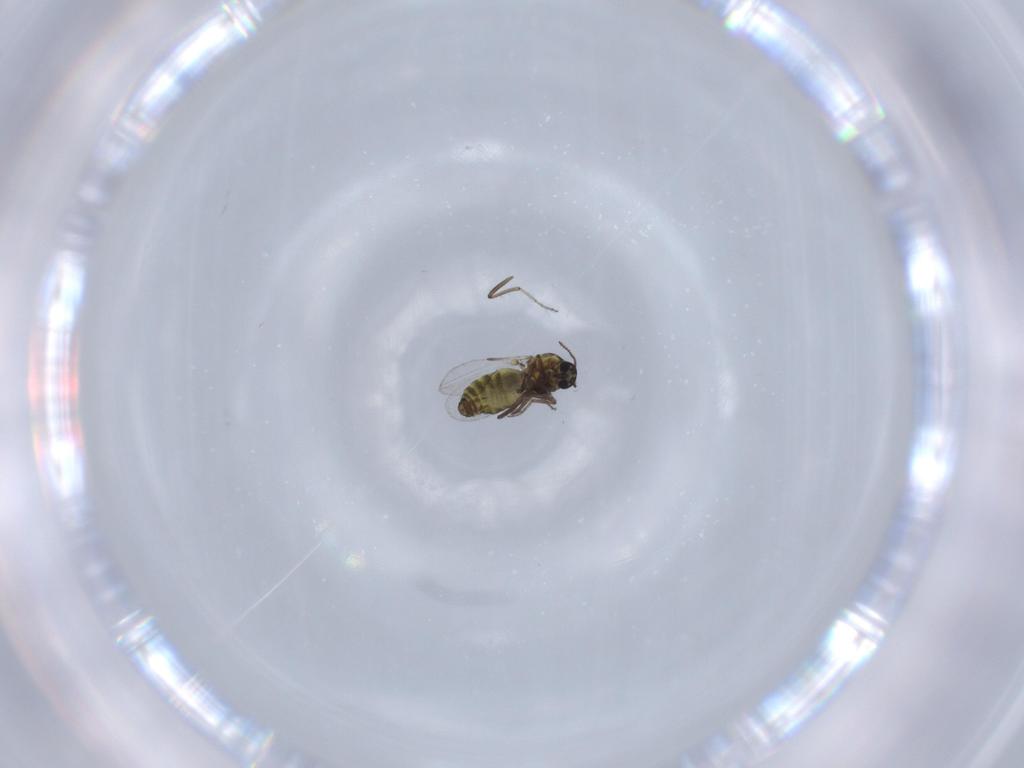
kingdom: Animalia
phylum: Arthropoda
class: Insecta
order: Diptera
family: Ceratopogonidae
